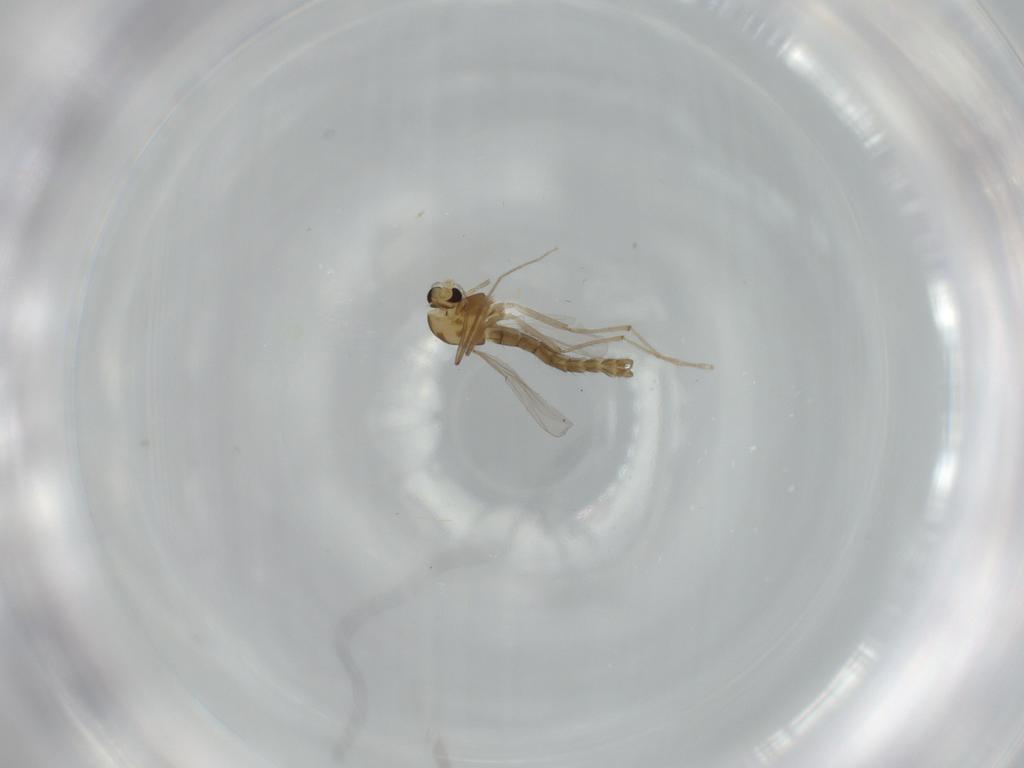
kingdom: Animalia
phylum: Arthropoda
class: Insecta
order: Diptera
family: Chironomidae
